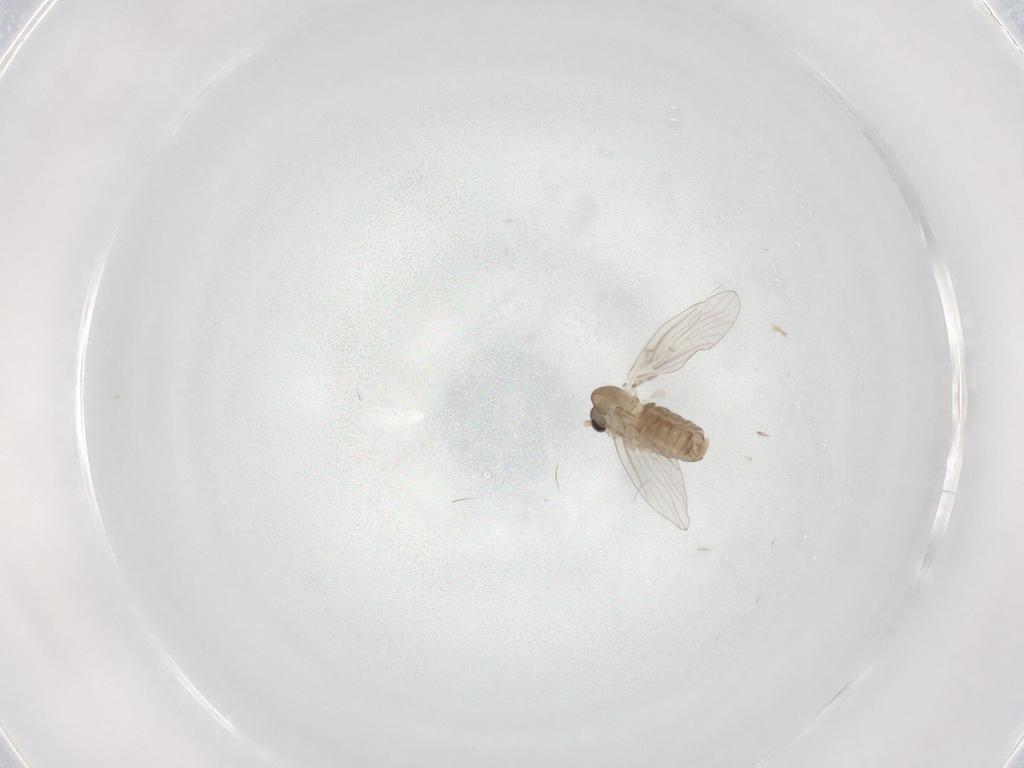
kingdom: Animalia
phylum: Arthropoda
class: Insecta
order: Diptera
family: Psychodidae
